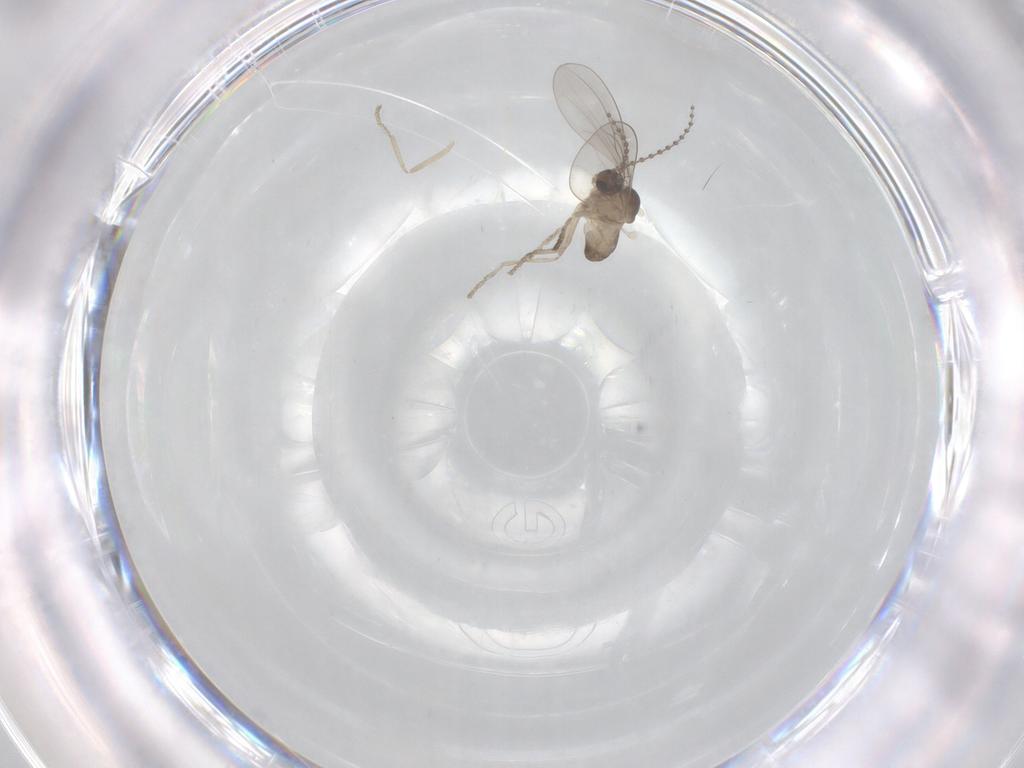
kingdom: Animalia
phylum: Arthropoda
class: Insecta
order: Diptera
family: Cecidomyiidae
